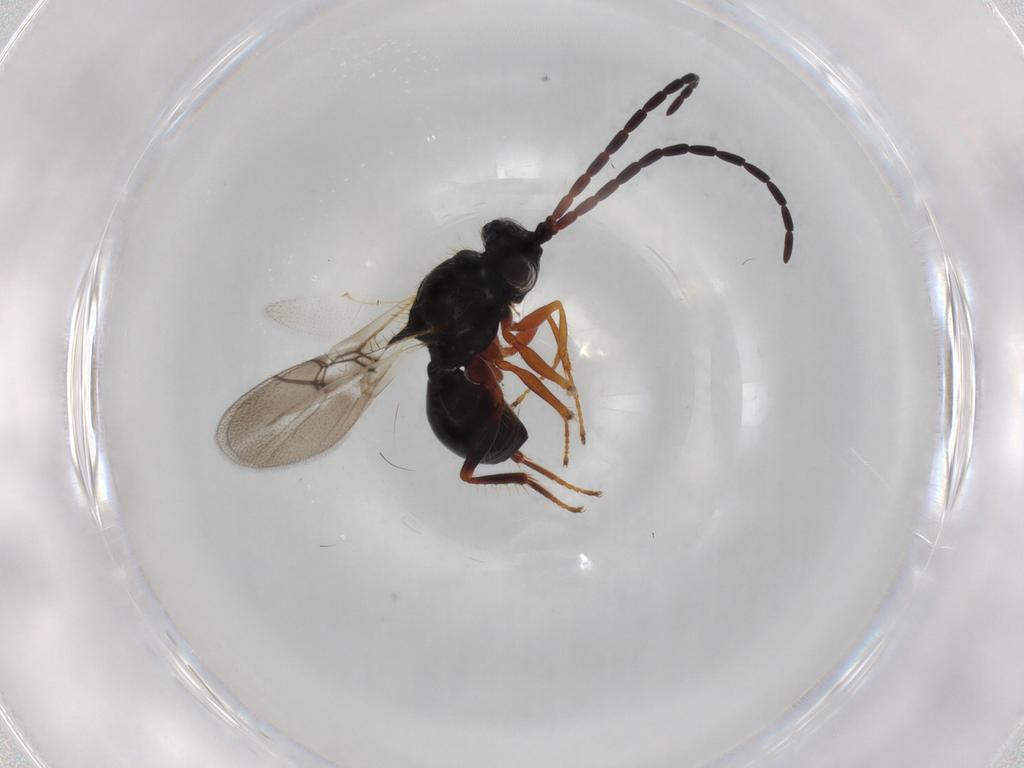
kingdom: Animalia
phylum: Arthropoda
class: Insecta
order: Hymenoptera
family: Figitidae
